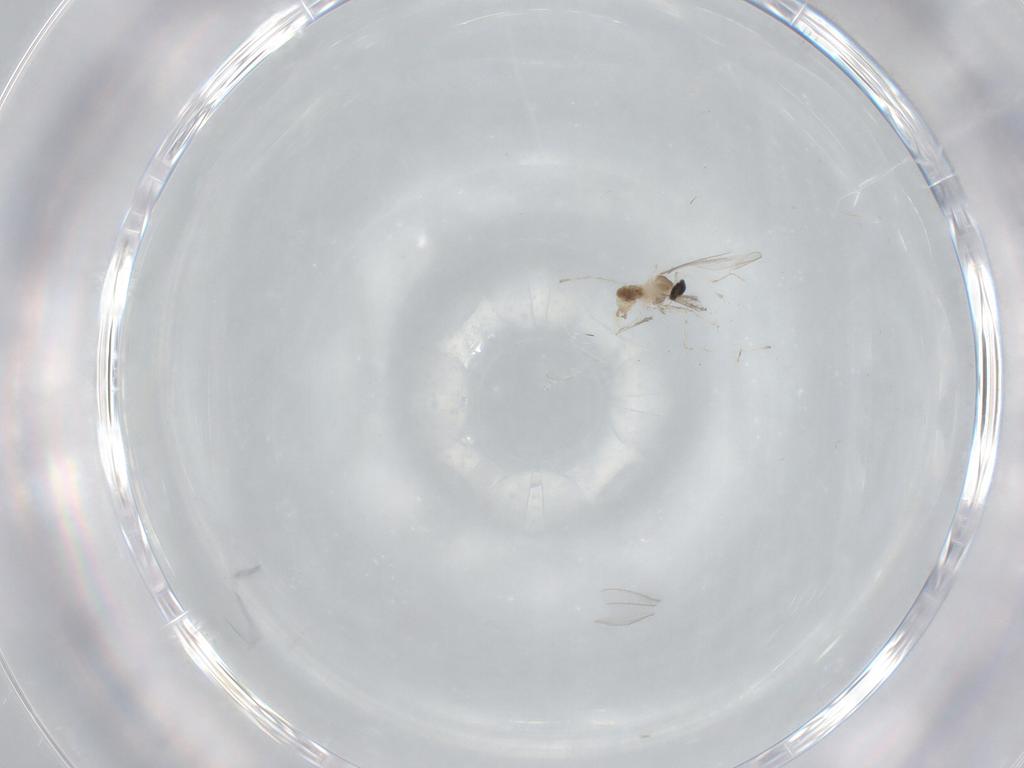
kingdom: Animalia
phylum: Arthropoda
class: Insecta
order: Diptera
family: Cecidomyiidae
